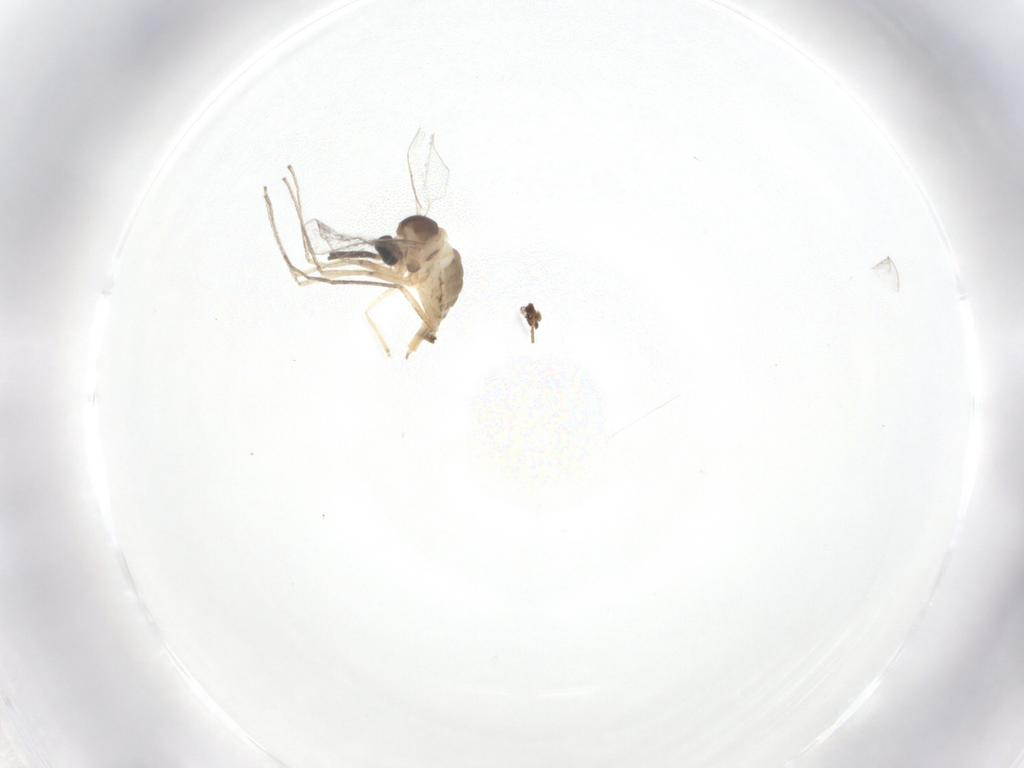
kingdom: Animalia
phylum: Arthropoda
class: Insecta
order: Diptera
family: Cecidomyiidae
